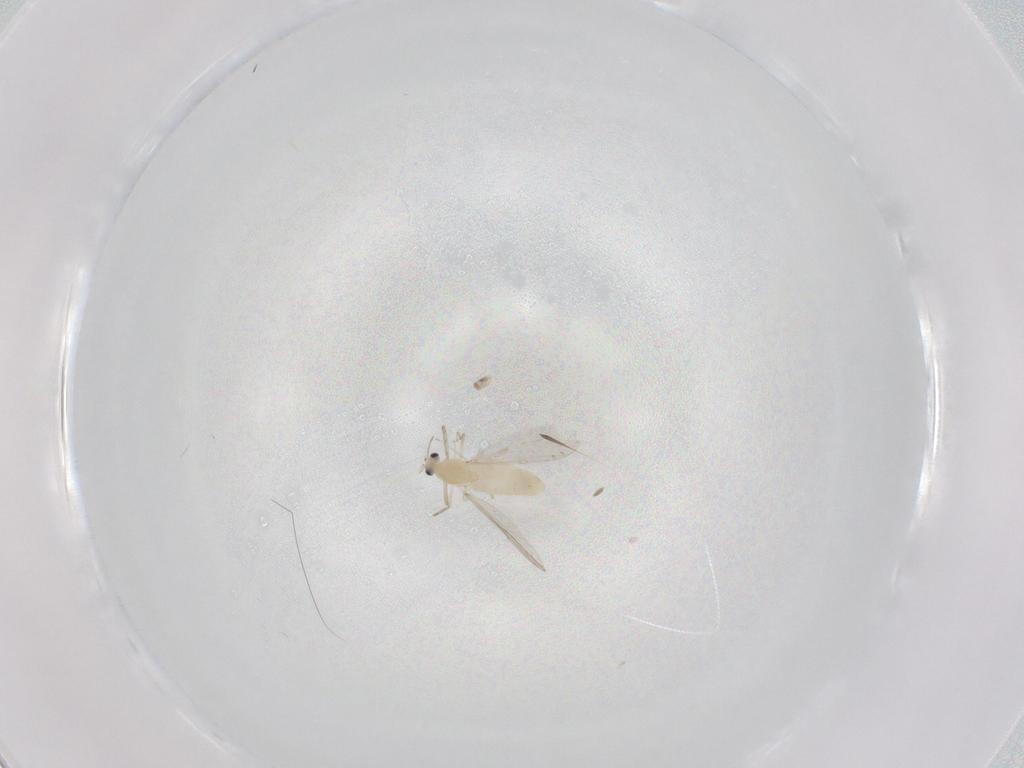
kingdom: Animalia
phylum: Arthropoda
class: Insecta
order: Diptera
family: Chironomidae
